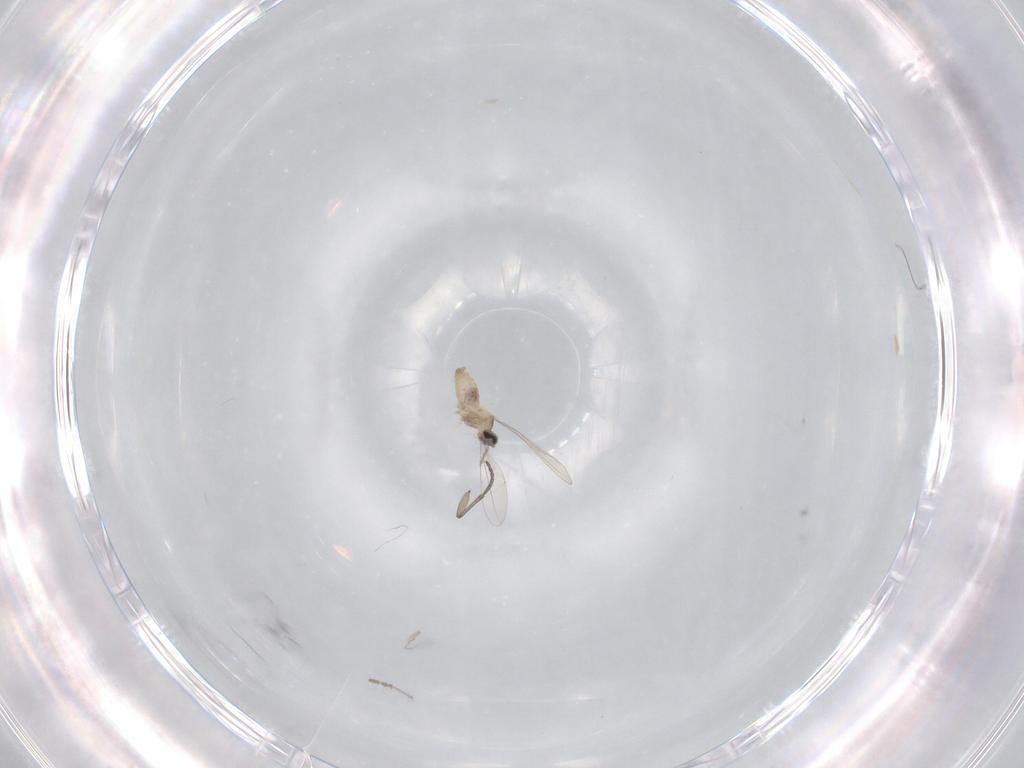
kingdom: Animalia
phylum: Arthropoda
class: Insecta
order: Diptera
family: Cecidomyiidae
